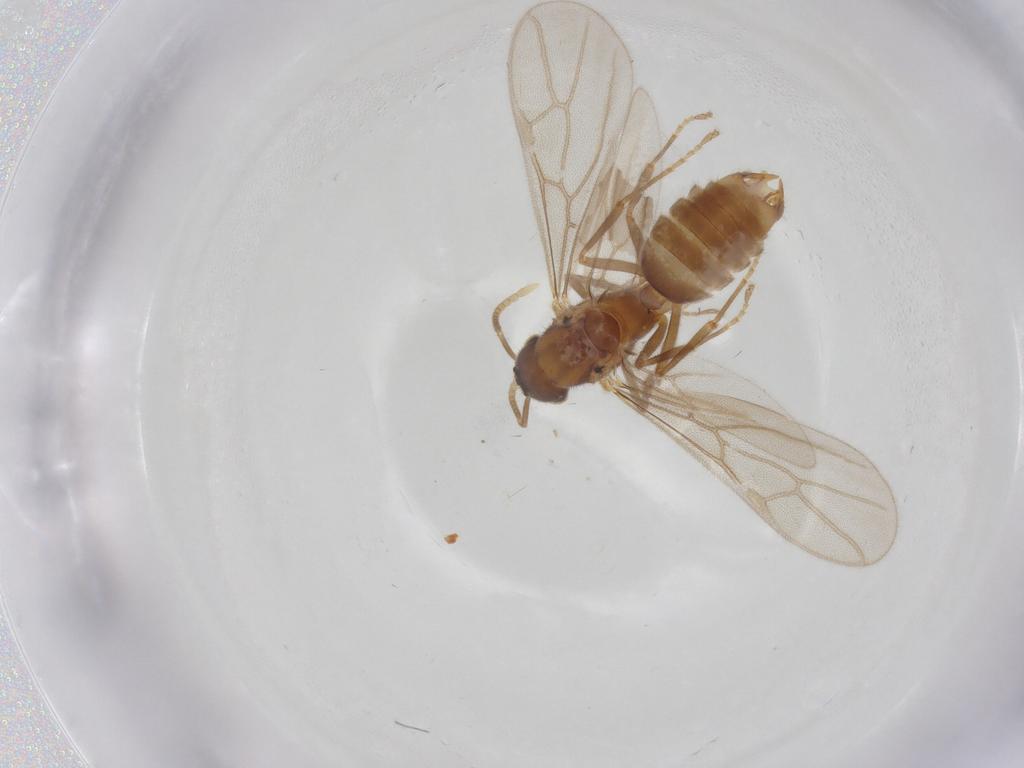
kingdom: Animalia
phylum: Arthropoda
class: Insecta
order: Hymenoptera
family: Formicidae
